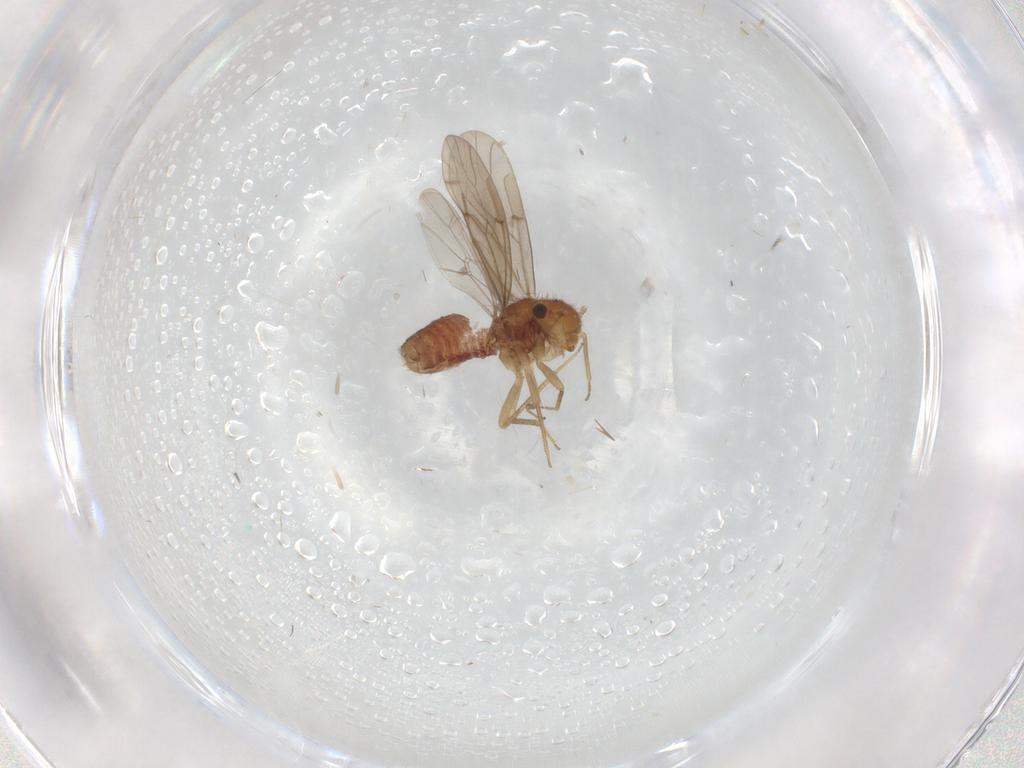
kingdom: Animalia
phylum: Arthropoda
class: Insecta
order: Psocodea
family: Ectopsocidae
